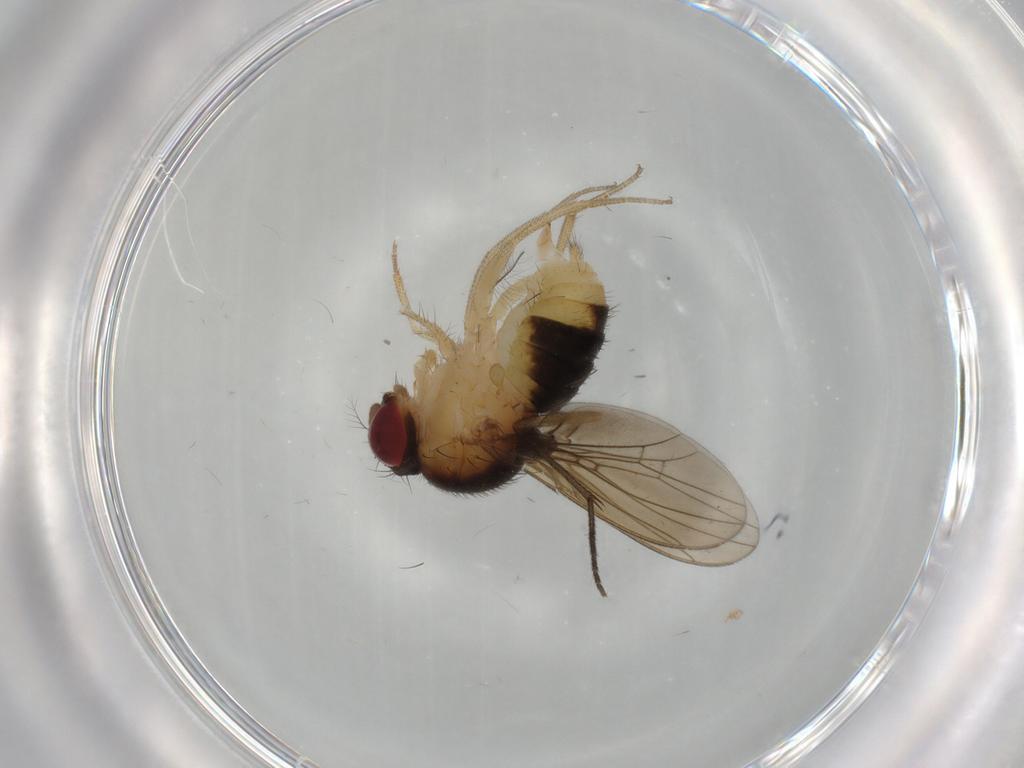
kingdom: Animalia
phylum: Arthropoda
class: Insecta
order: Diptera
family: Drosophilidae
